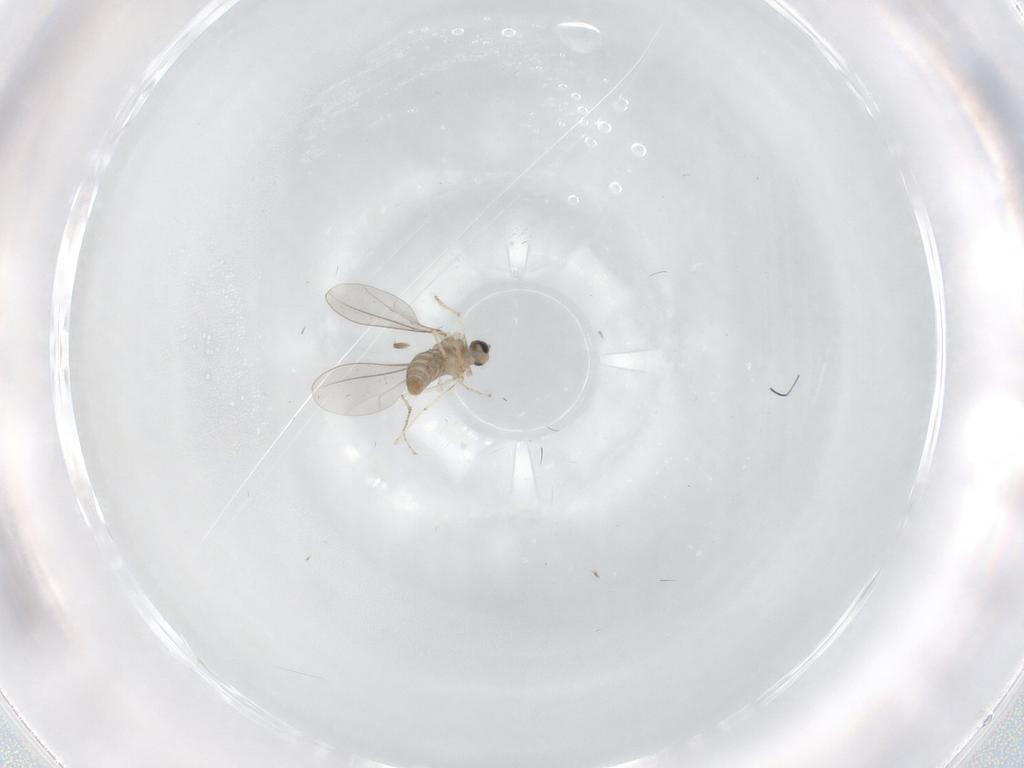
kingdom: Animalia
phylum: Arthropoda
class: Insecta
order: Diptera
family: Cecidomyiidae
